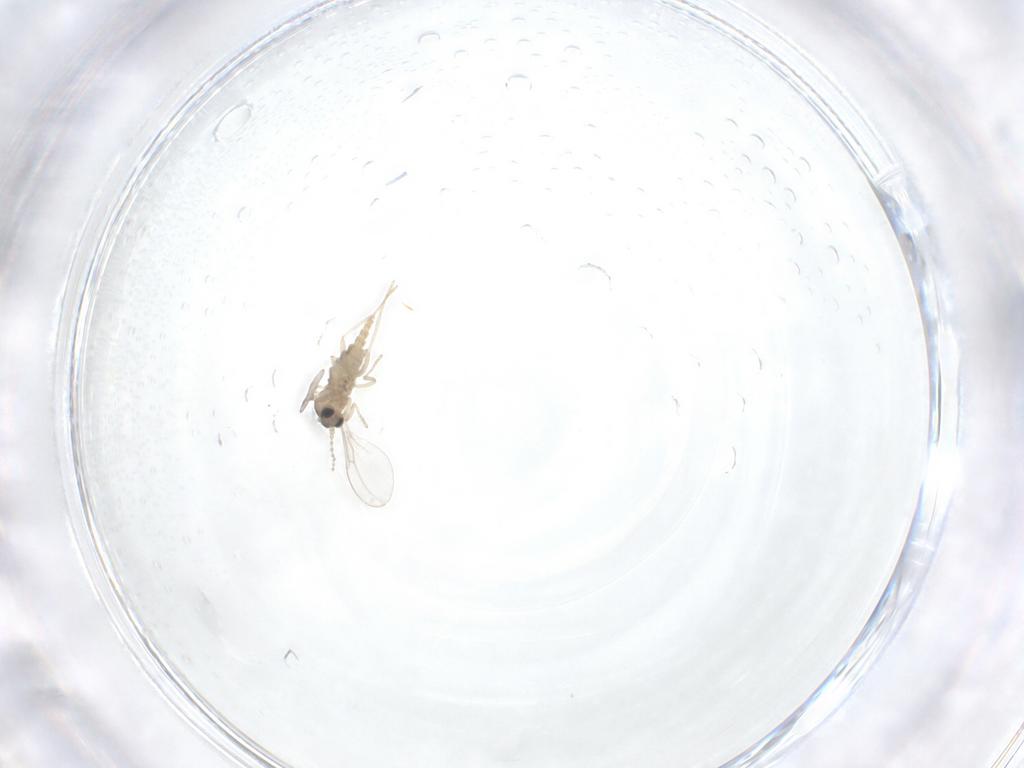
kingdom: Animalia
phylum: Arthropoda
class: Insecta
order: Diptera
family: Cecidomyiidae
